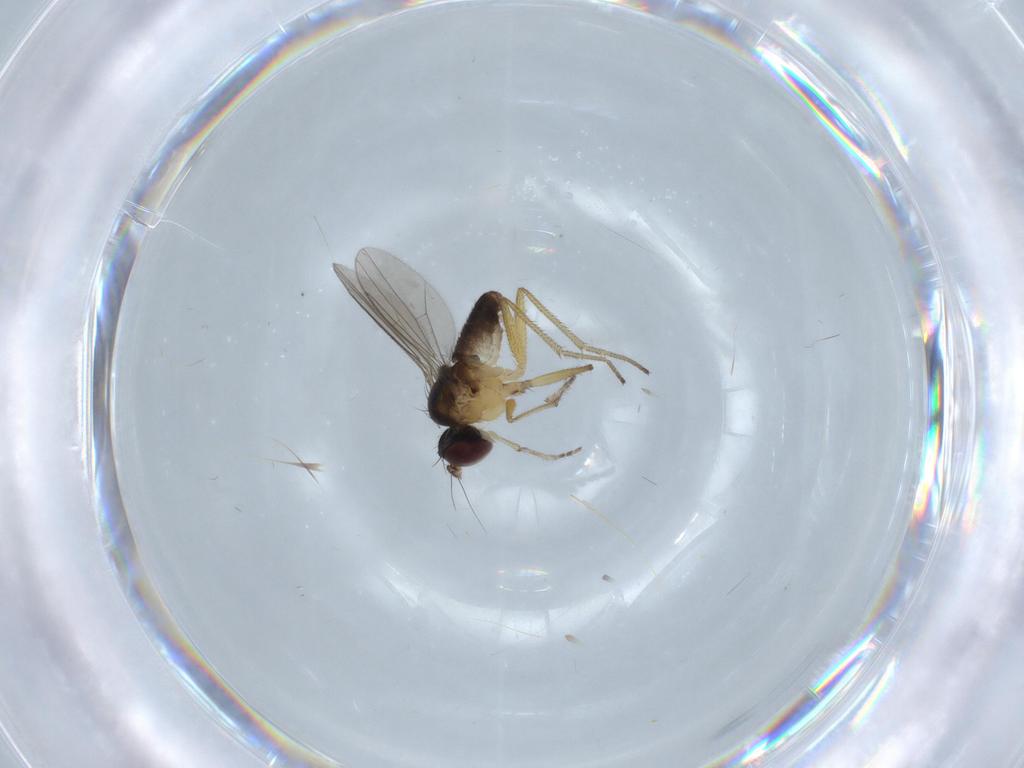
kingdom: Animalia
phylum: Arthropoda
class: Insecta
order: Diptera
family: Dolichopodidae
